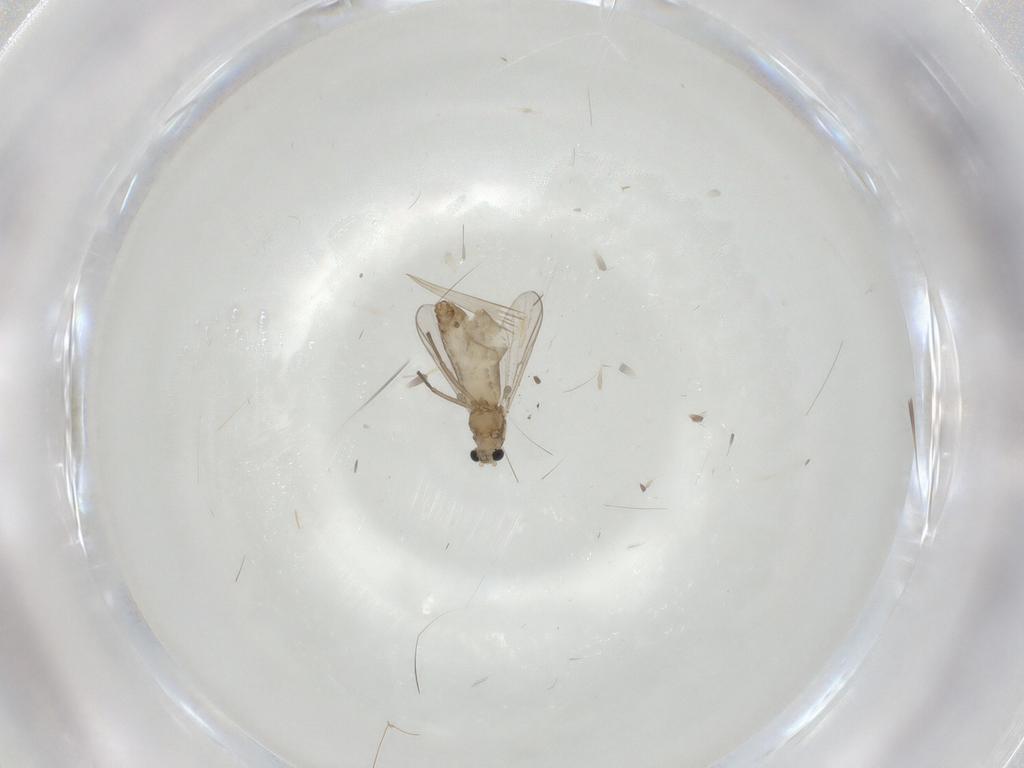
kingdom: Animalia
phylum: Arthropoda
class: Insecta
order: Diptera
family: Chironomidae
